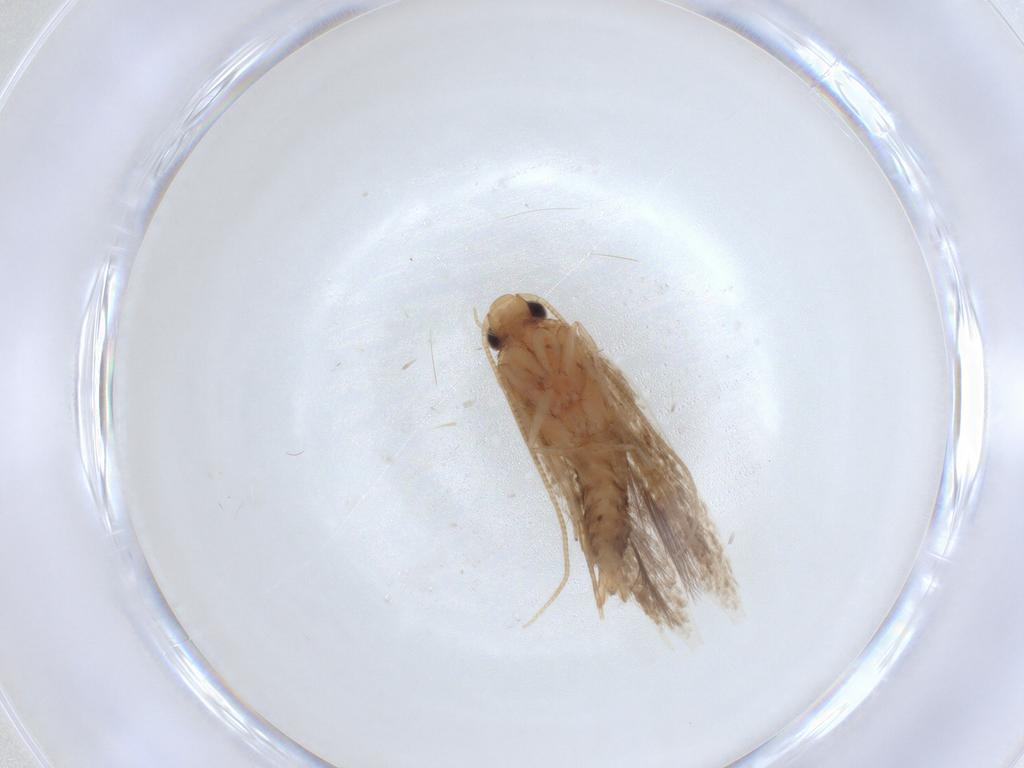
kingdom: Animalia
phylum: Arthropoda
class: Insecta
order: Lepidoptera
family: Tineidae
